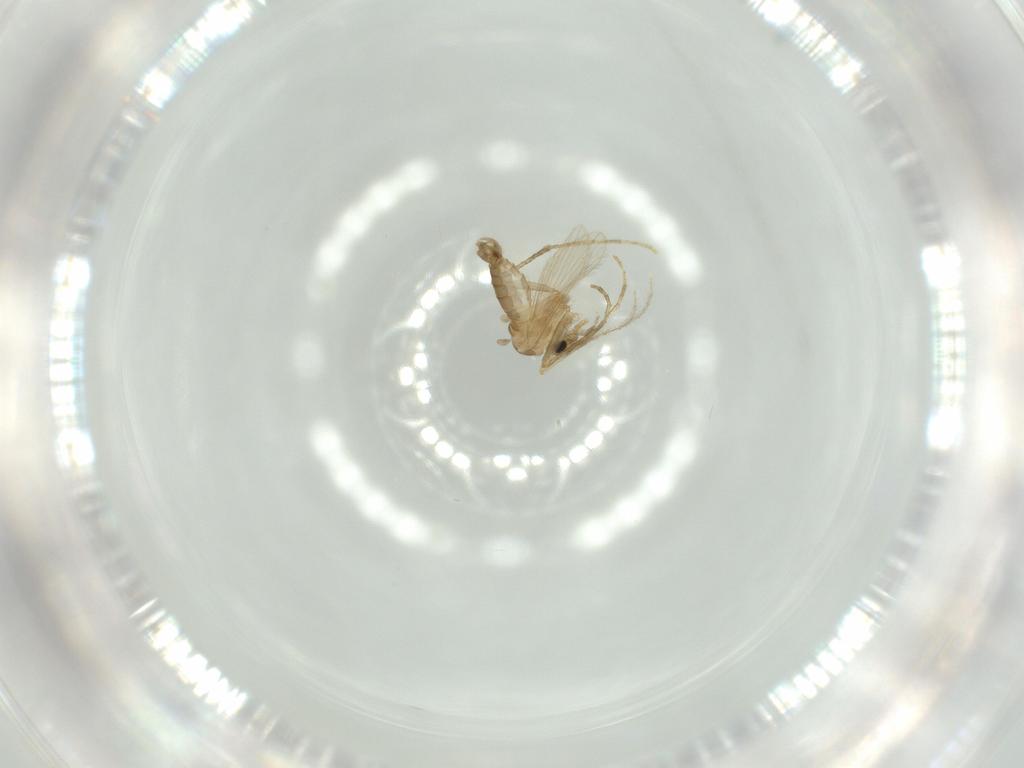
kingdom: Animalia
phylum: Arthropoda
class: Insecta
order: Diptera
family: Psychodidae
